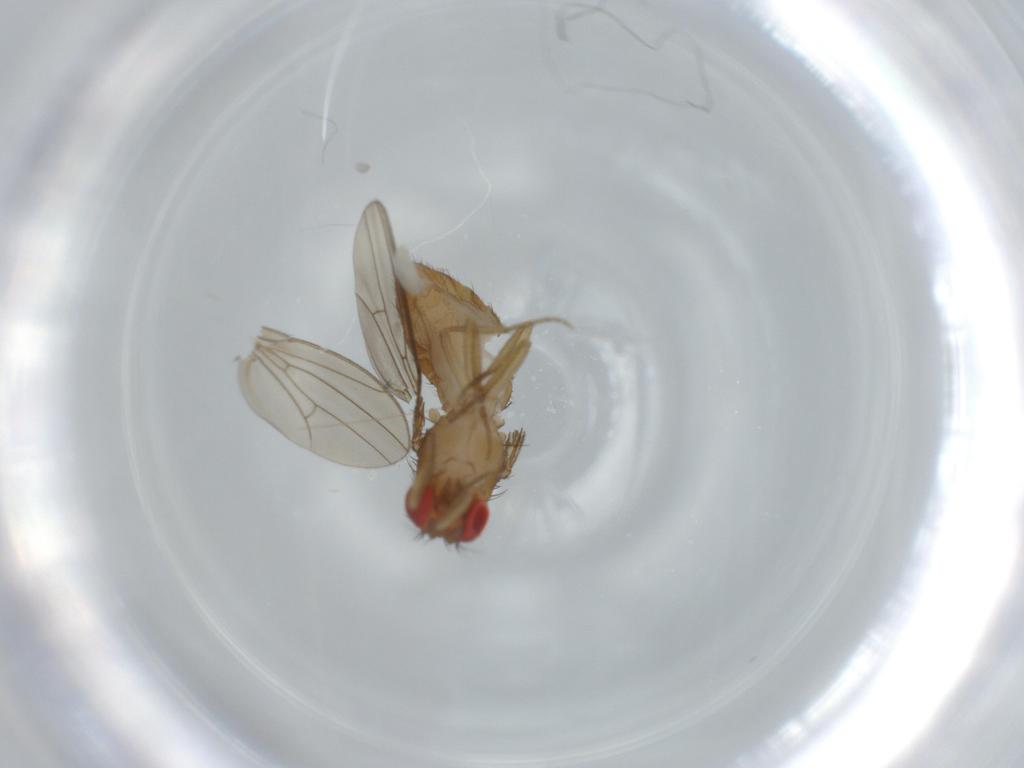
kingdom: Animalia
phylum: Arthropoda
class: Insecta
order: Diptera
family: Drosophilidae
